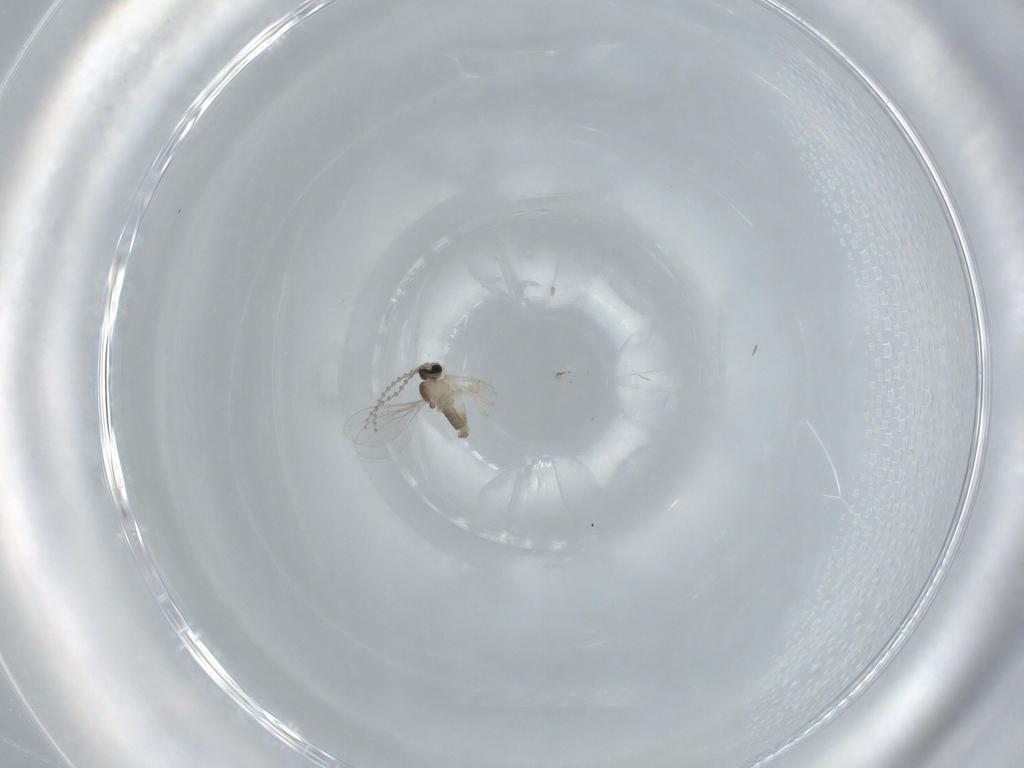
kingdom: Animalia
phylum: Arthropoda
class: Insecta
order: Diptera
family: Cecidomyiidae
